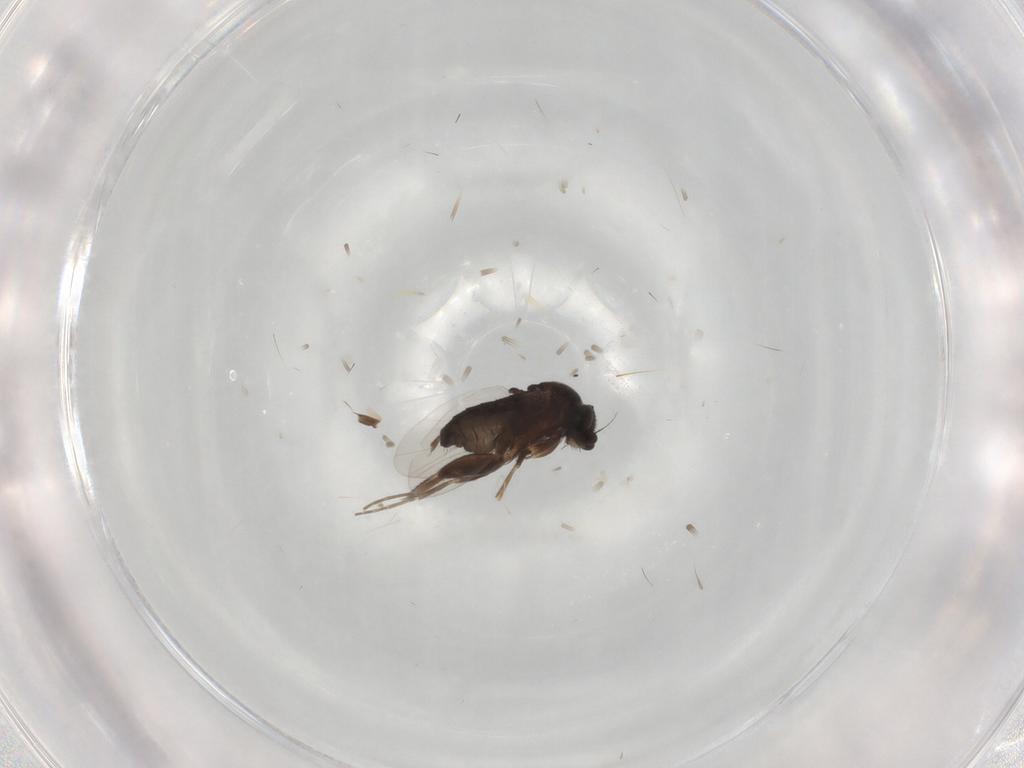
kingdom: Animalia
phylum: Arthropoda
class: Insecta
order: Diptera
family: Phoridae
